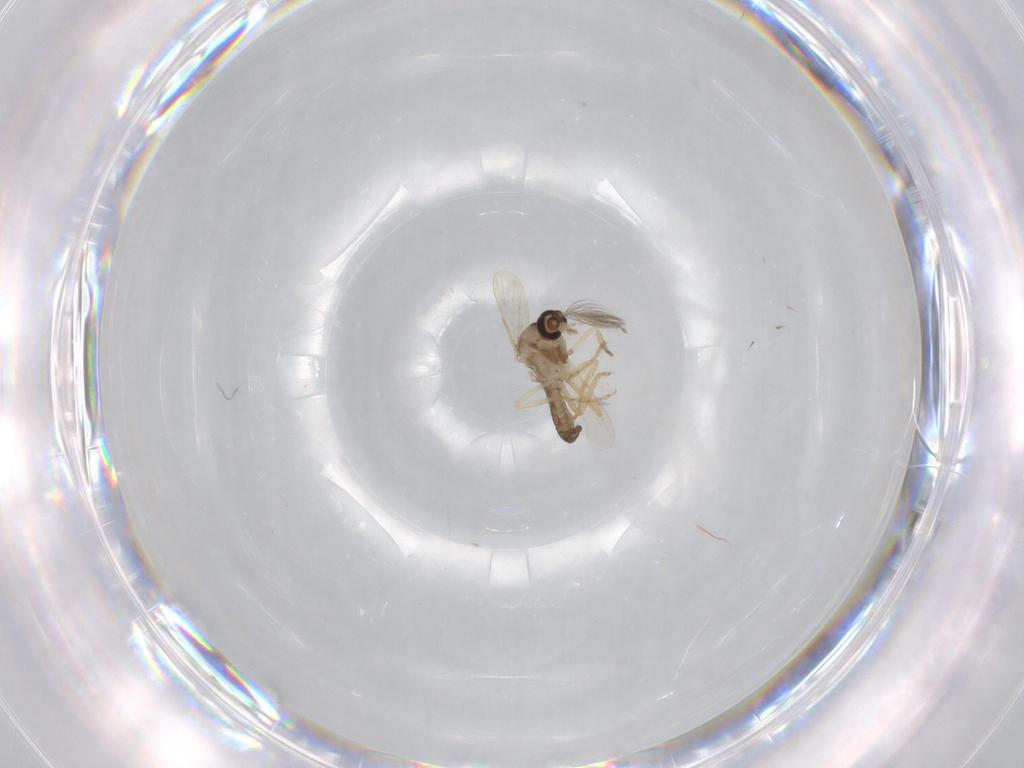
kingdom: Animalia
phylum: Arthropoda
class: Insecta
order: Diptera
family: Ceratopogonidae
